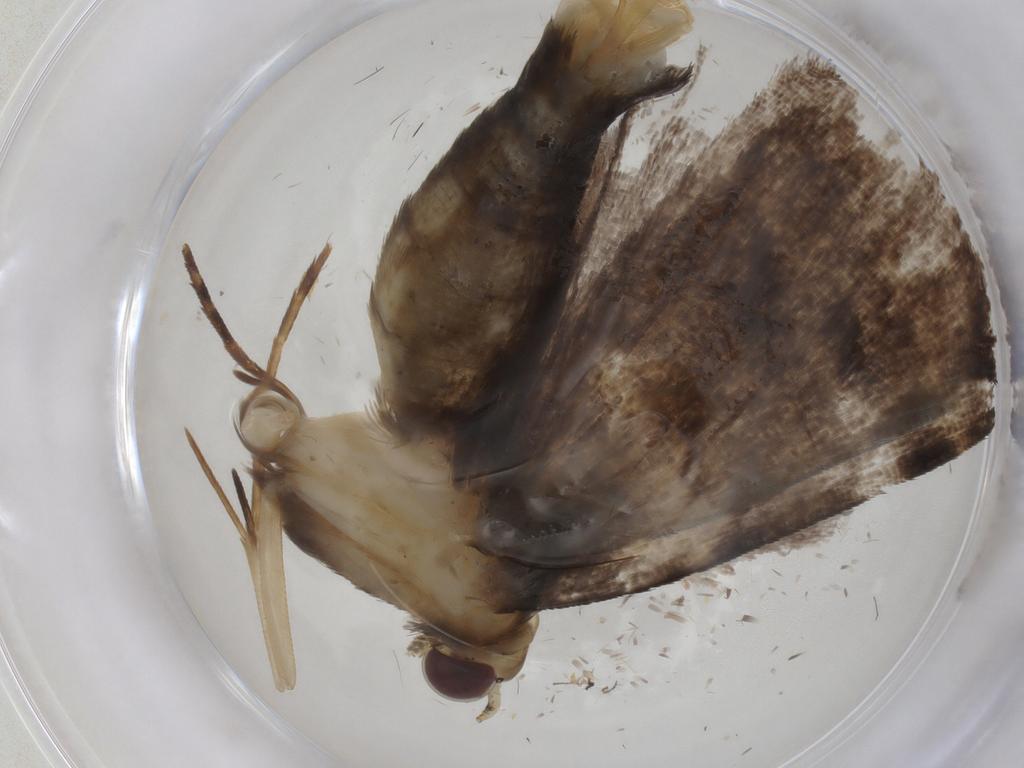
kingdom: Animalia
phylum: Arthropoda
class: Insecta
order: Lepidoptera
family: Erebidae
